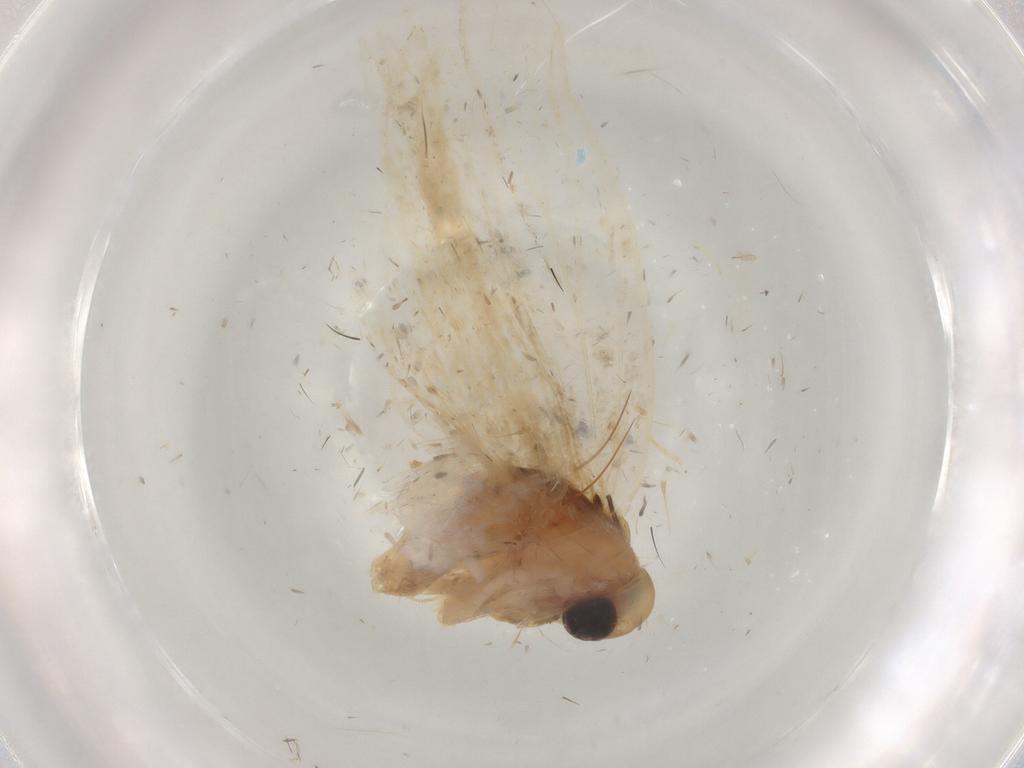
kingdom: Animalia
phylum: Arthropoda
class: Insecta
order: Lepidoptera
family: Lecithoceridae
